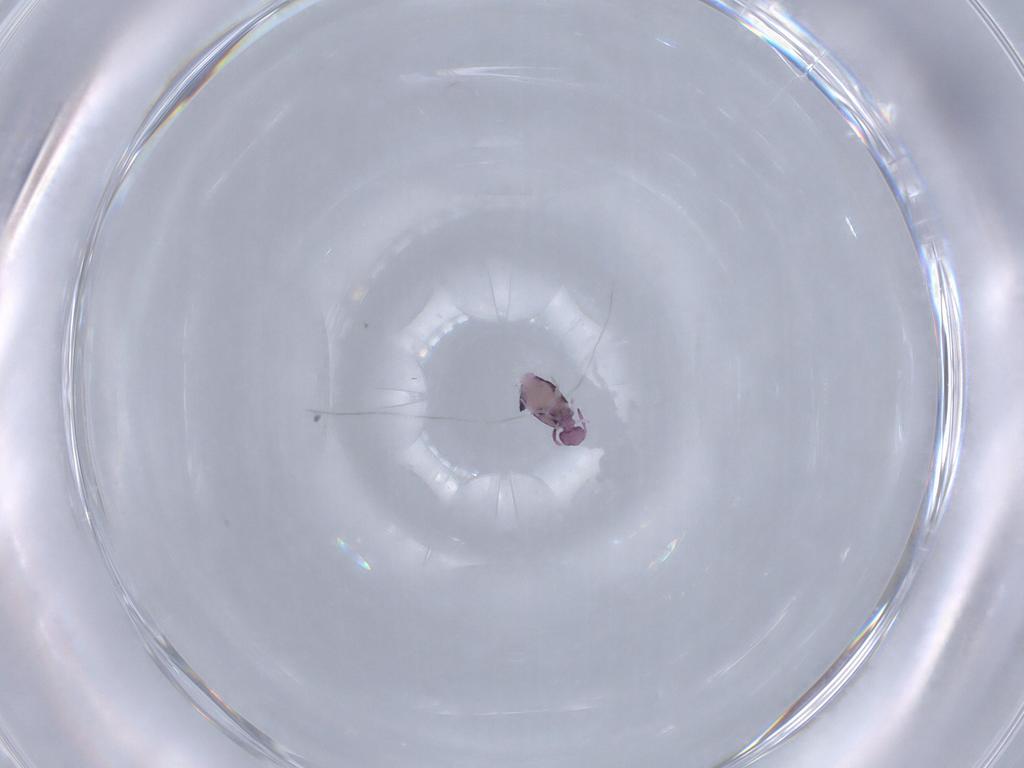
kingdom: Animalia
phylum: Arthropoda
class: Collembola
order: Symphypleona
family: Katiannidae
